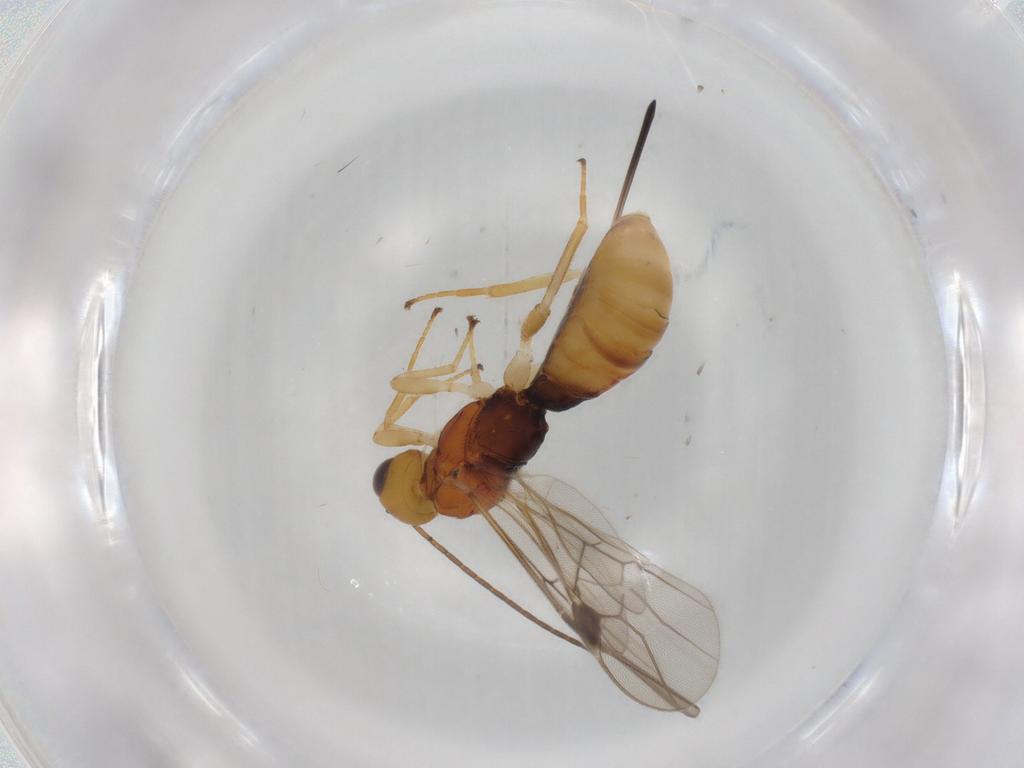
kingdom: Animalia
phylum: Arthropoda
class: Insecta
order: Hymenoptera
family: Braconidae
